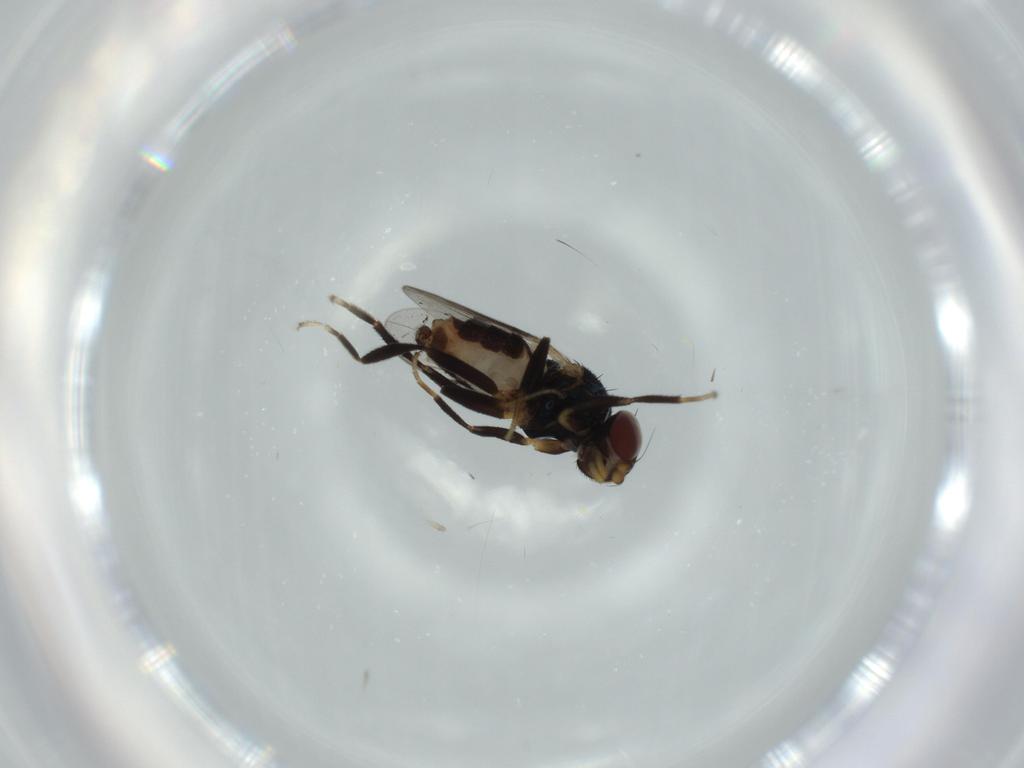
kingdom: Animalia
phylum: Arthropoda
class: Insecta
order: Diptera
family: Chloropidae
